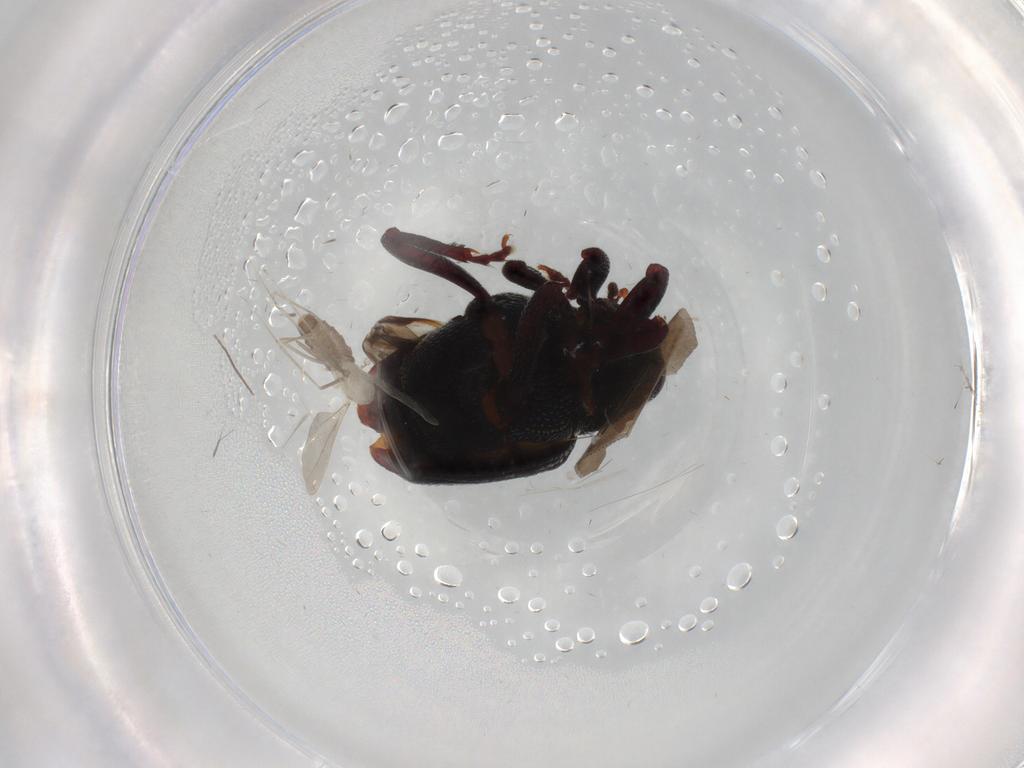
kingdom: Animalia
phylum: Arthropoda
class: Insecta
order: Coleoptera
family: Curculionidae
